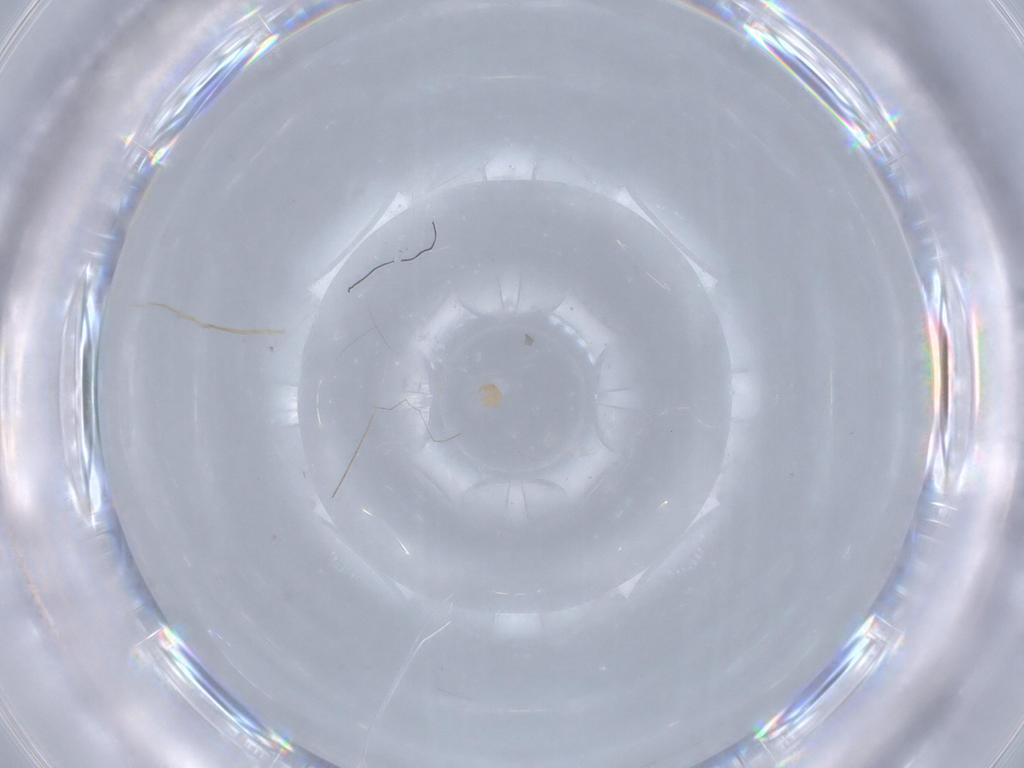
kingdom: Animalia
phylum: Arthropoda
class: Arachnida
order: Trombidiformes
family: Scutacaridae
